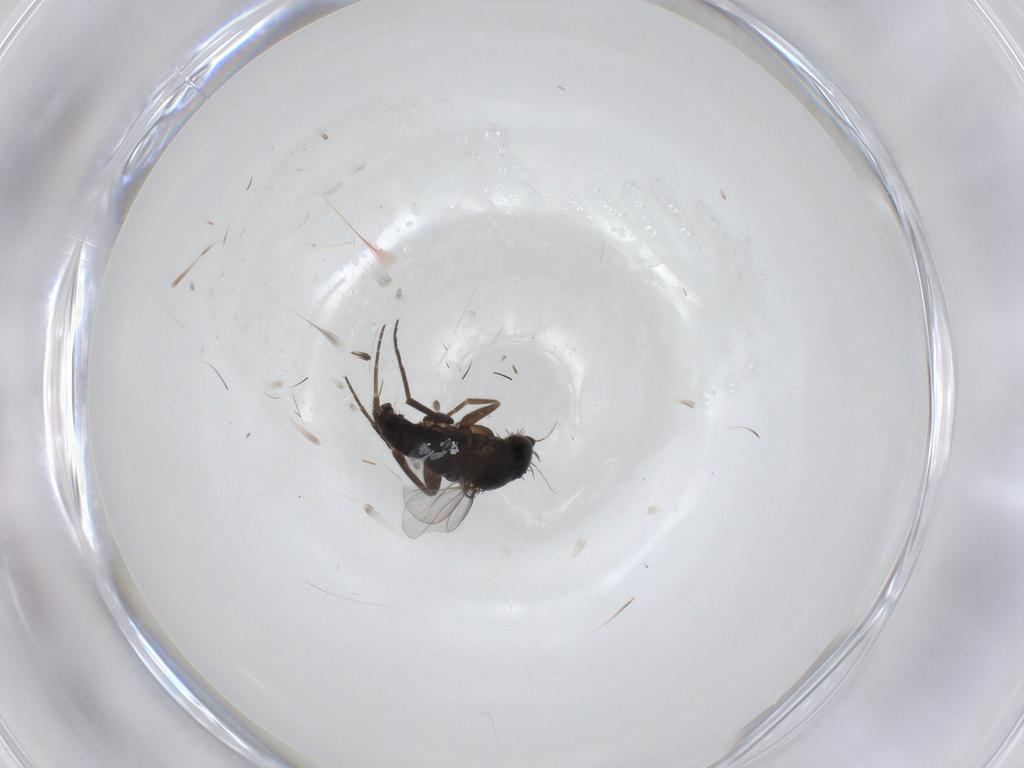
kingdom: Animalia
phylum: Arthropoda
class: Insecta
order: Diptera
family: Phoridae
